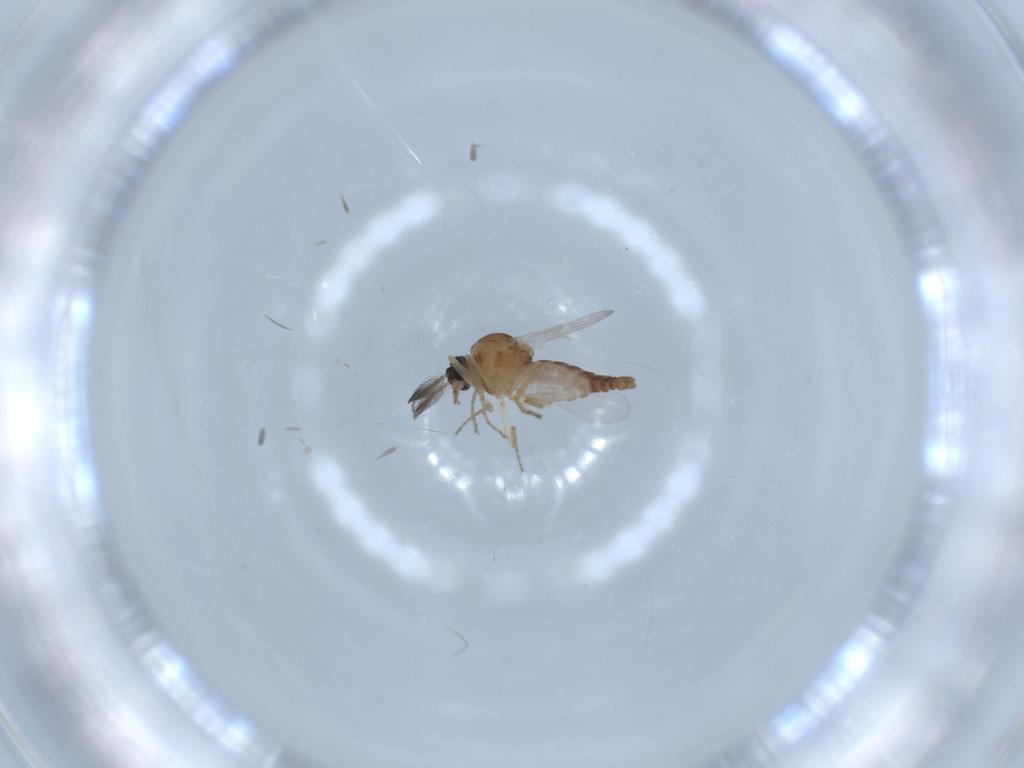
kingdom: Animalia
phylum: Arthropoda
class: Insecta
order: Diptera
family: Ceratopogonidae
